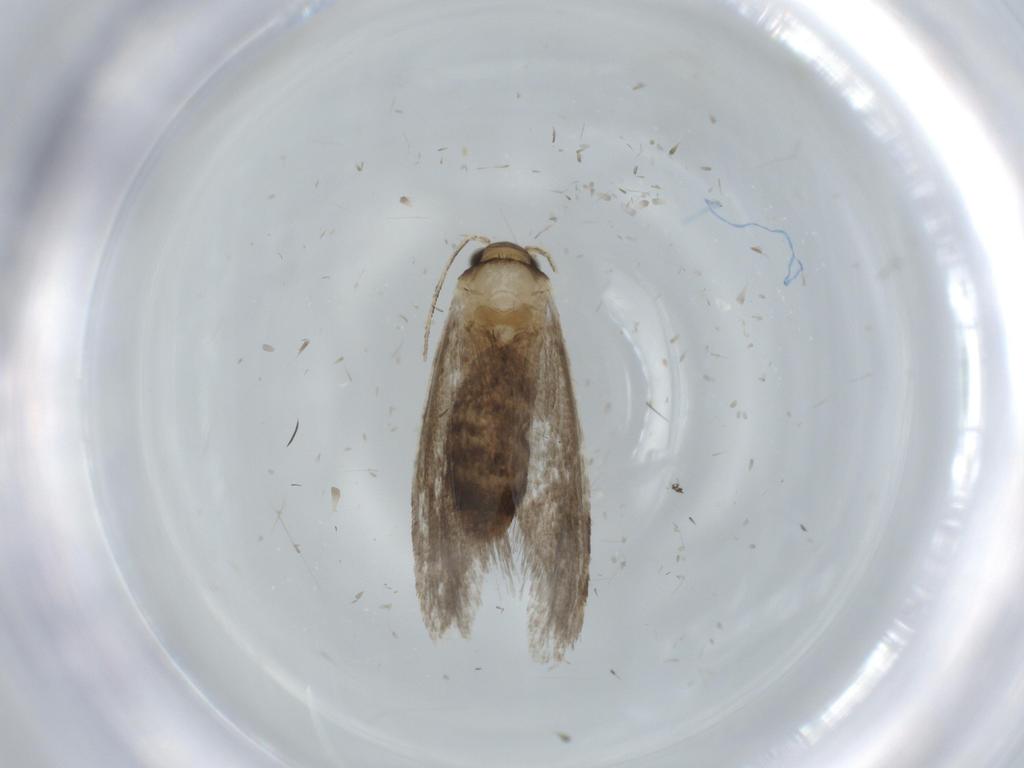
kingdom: Animalia
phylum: Arthropoda
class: Insecta
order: Lepidoptera
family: Tineidae
